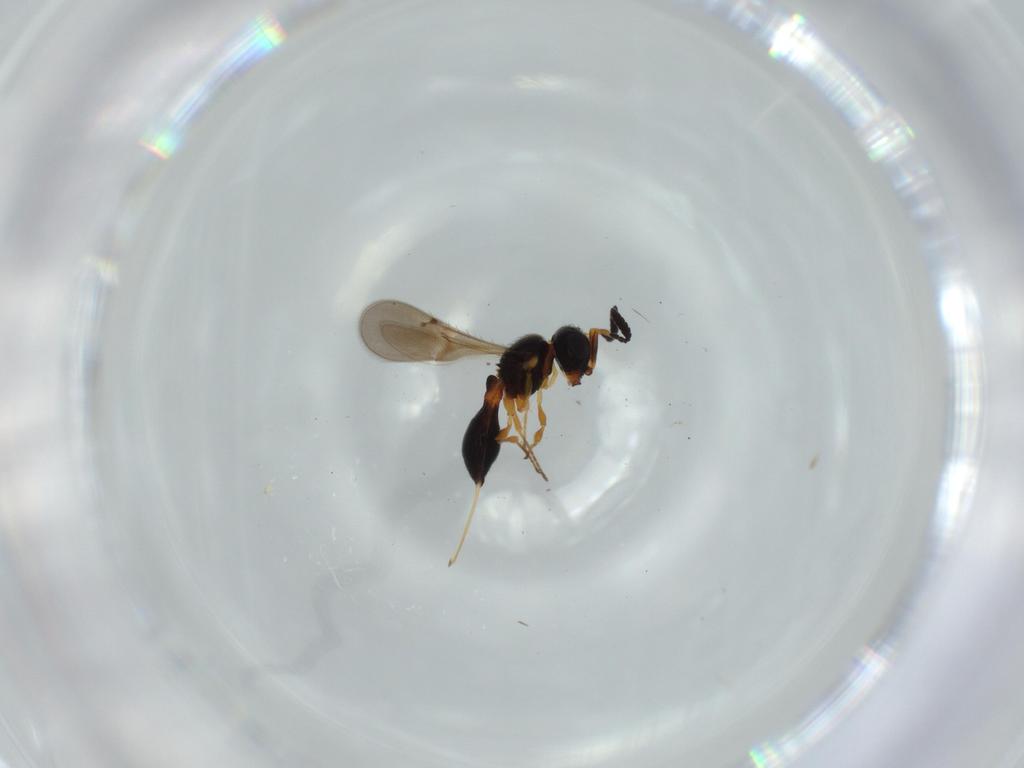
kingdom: Animalia
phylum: Arthropoda
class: Insecta
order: Hymenoptera
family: Scelionidae
